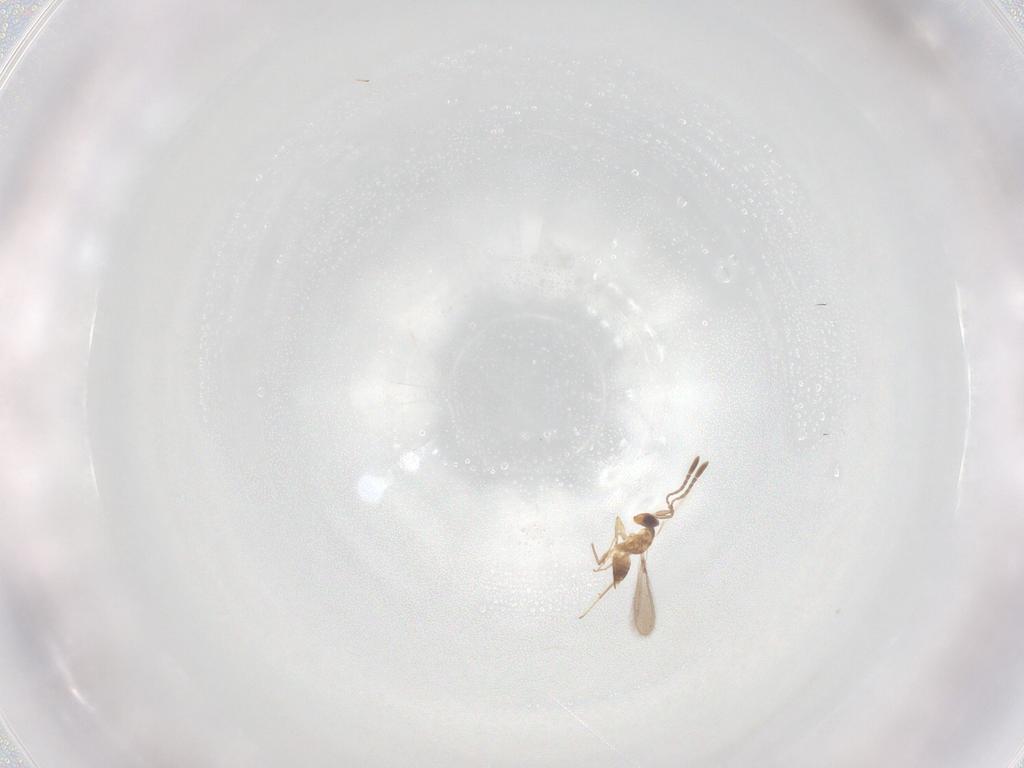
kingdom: Animalia
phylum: Arthropoda
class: Insecta
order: Hymenoptera
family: Mymaridae
